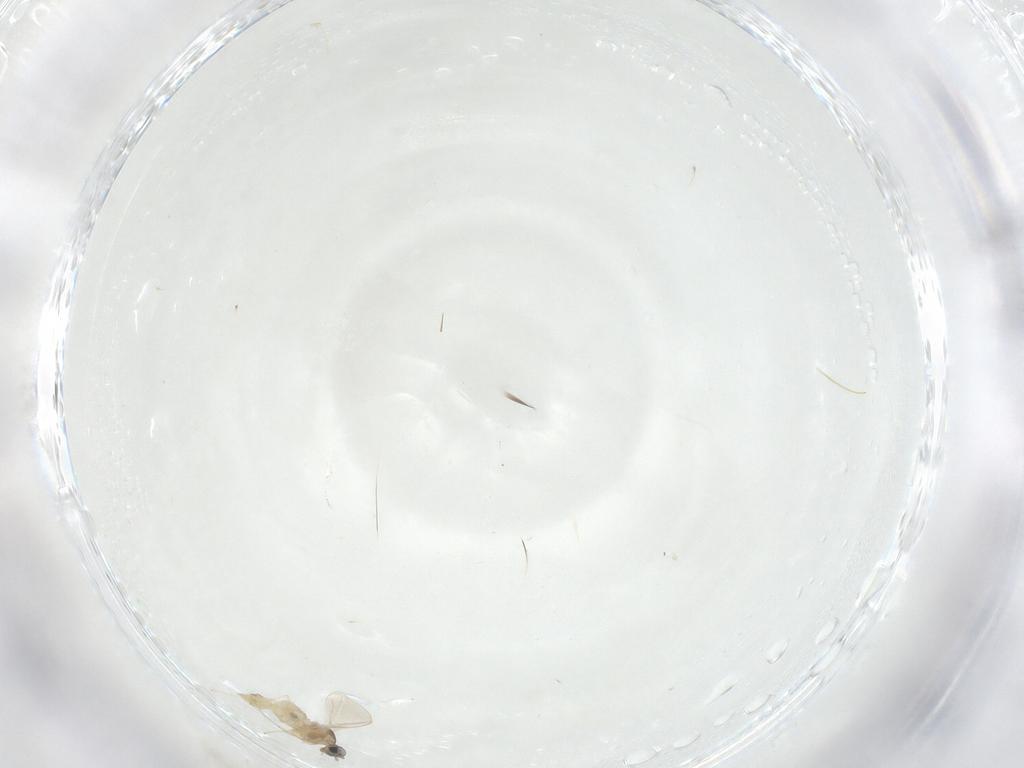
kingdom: Animalia
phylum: Arthropoda
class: Insecta
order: Diptera
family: Cecidomyiidae
